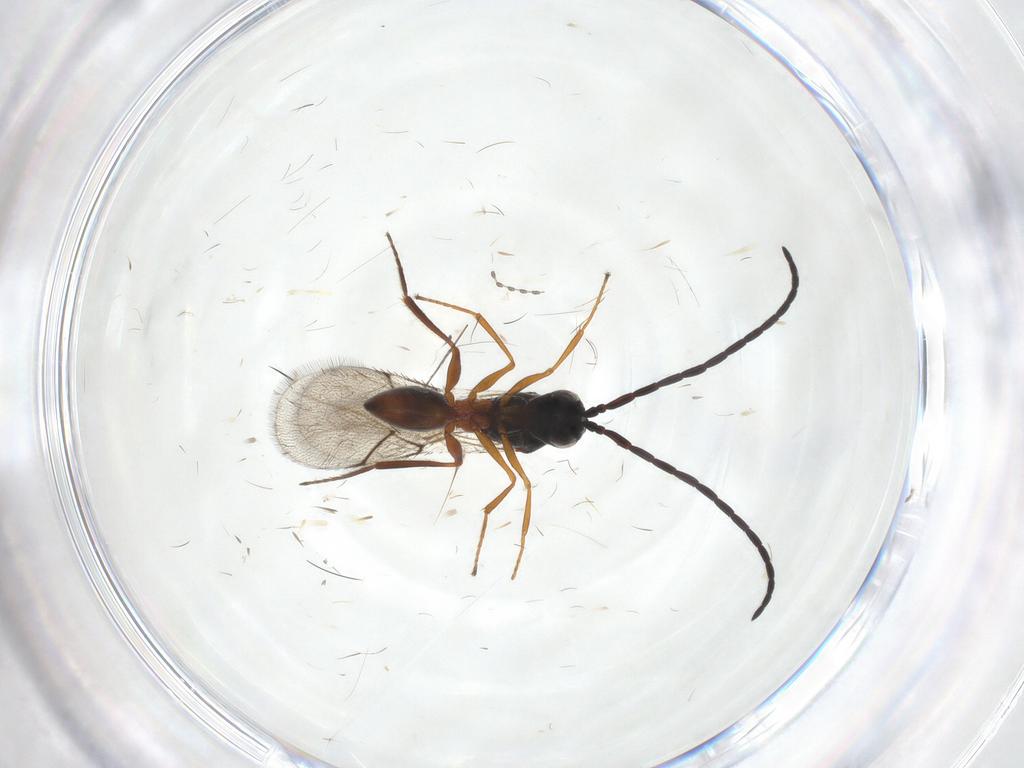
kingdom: Animalia
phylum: Arthropoda
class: Insecta
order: Hymenoptera
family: Figitidae
